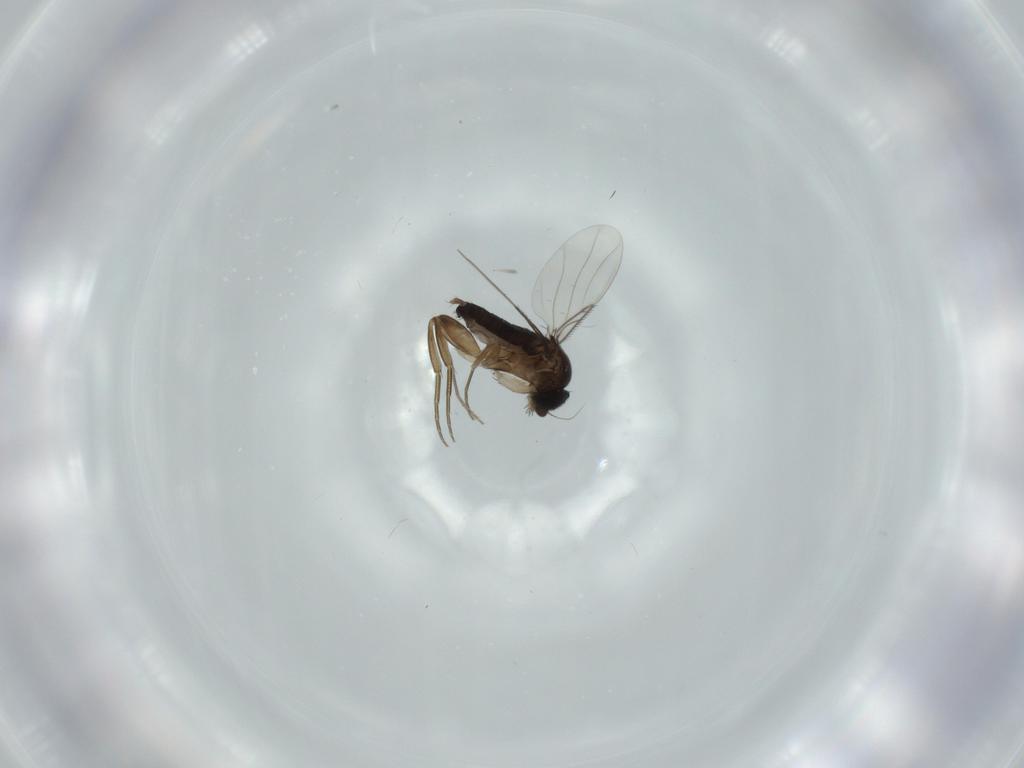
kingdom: Animalia
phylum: Arthropoda
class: Insecta
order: Diptera
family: Phoridae
